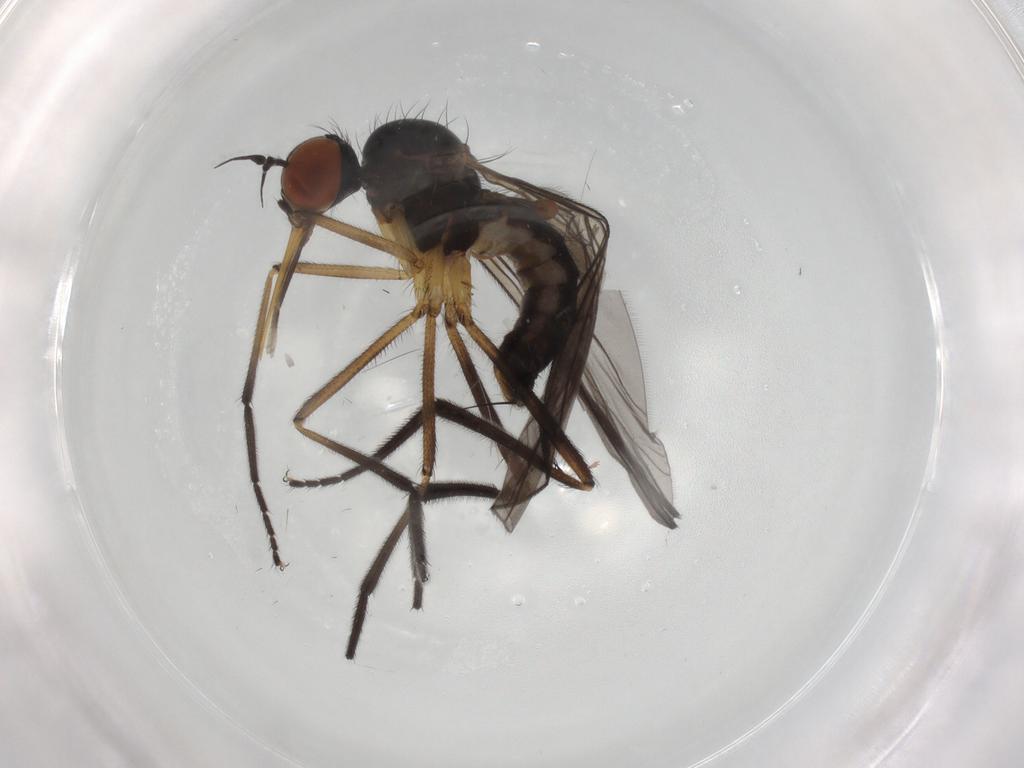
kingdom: Animalia
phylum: Arthropoda
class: Insecta
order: Diptera
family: Empididae
